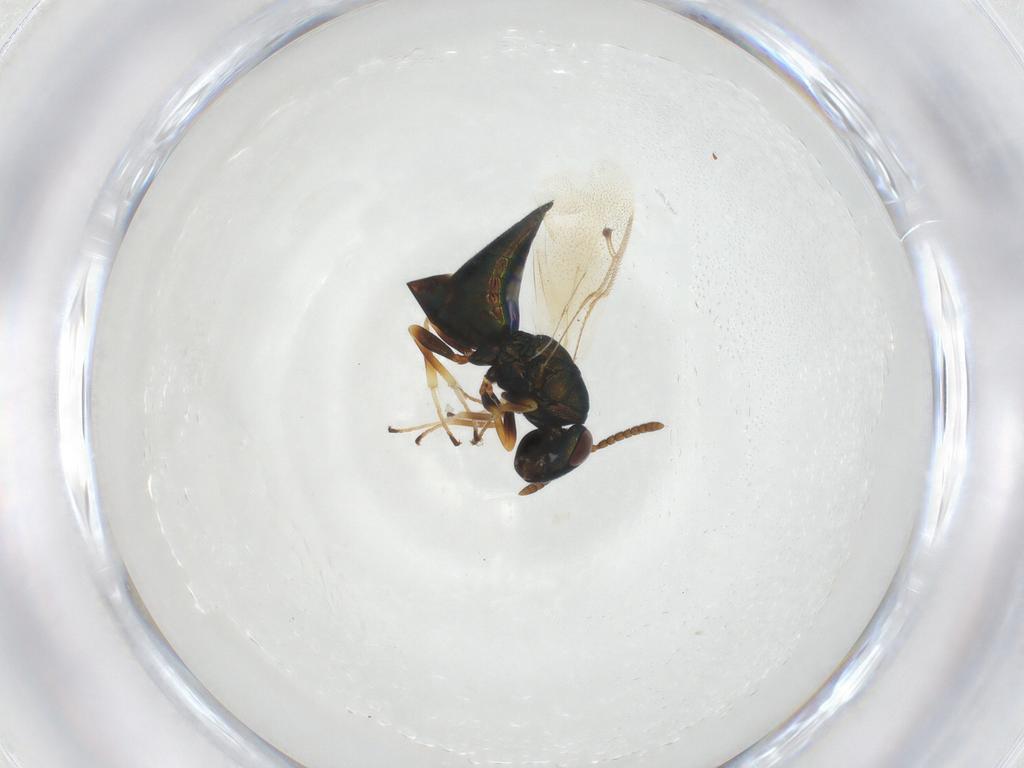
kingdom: Animalia
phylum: Arthropoda
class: Insecta
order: Hymenoptera
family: Pteromalidae
